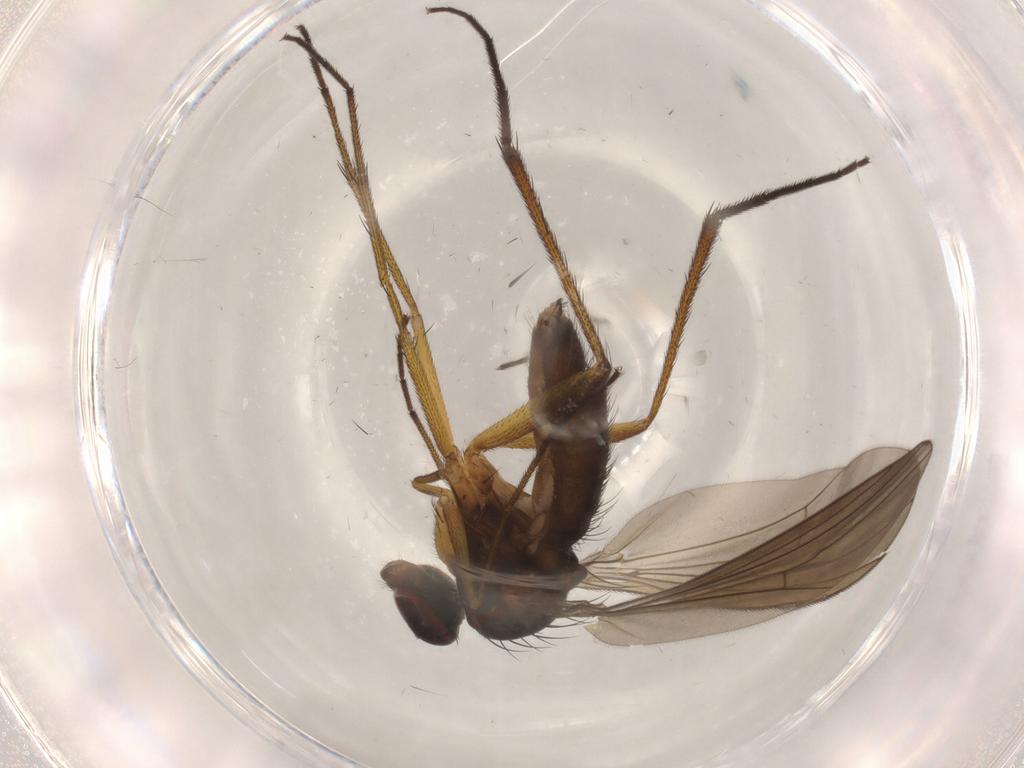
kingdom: Animalia
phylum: Arthropoda
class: Insecta
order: Diptera
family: Dolichopodidae
